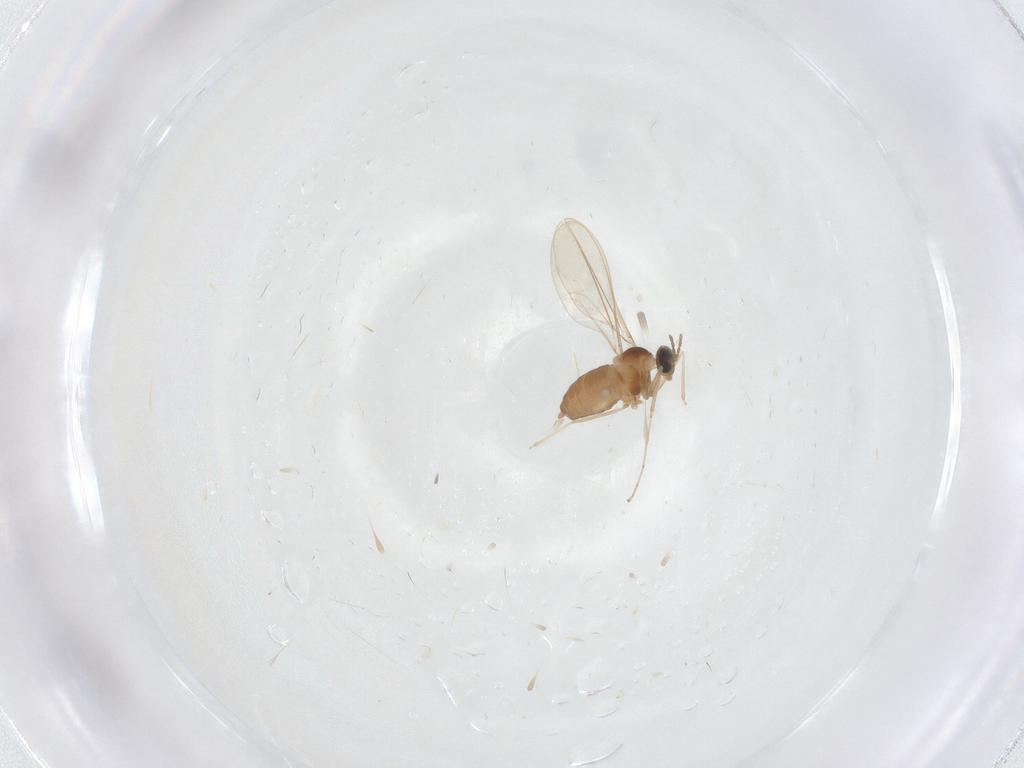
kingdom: Animalia
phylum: Arthropoda
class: Insecta
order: Diptera
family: Cecidomyiidae
